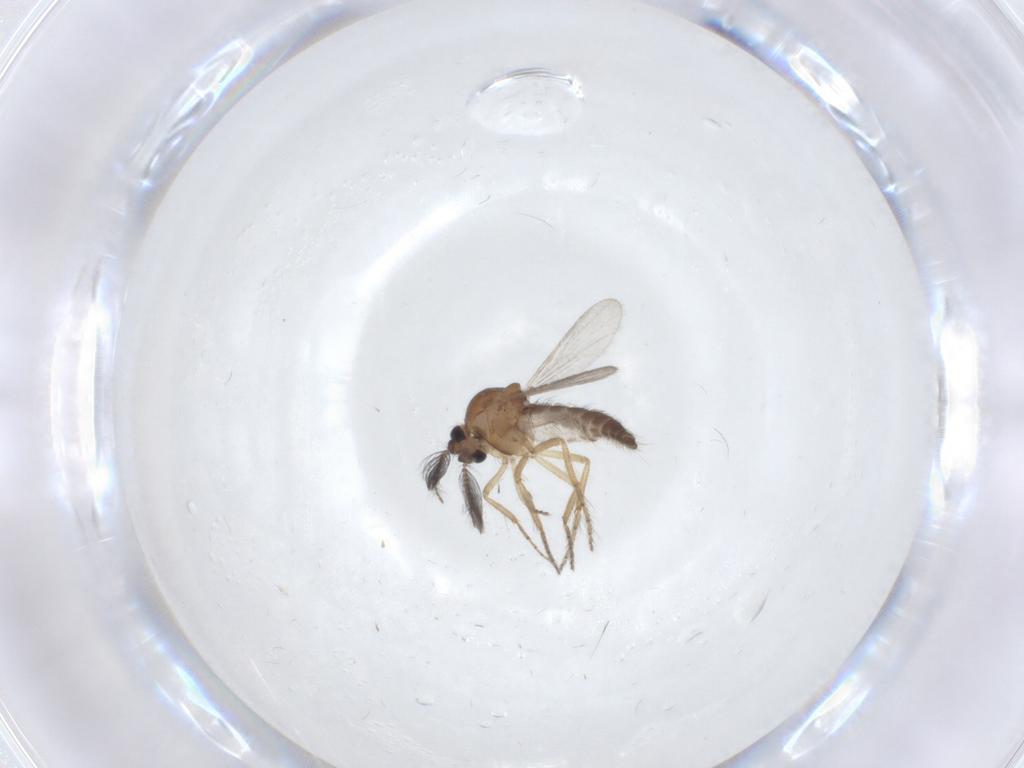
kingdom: Animalia
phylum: Arthropoda
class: Insecta
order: Diptera
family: Ceratopogonidae
